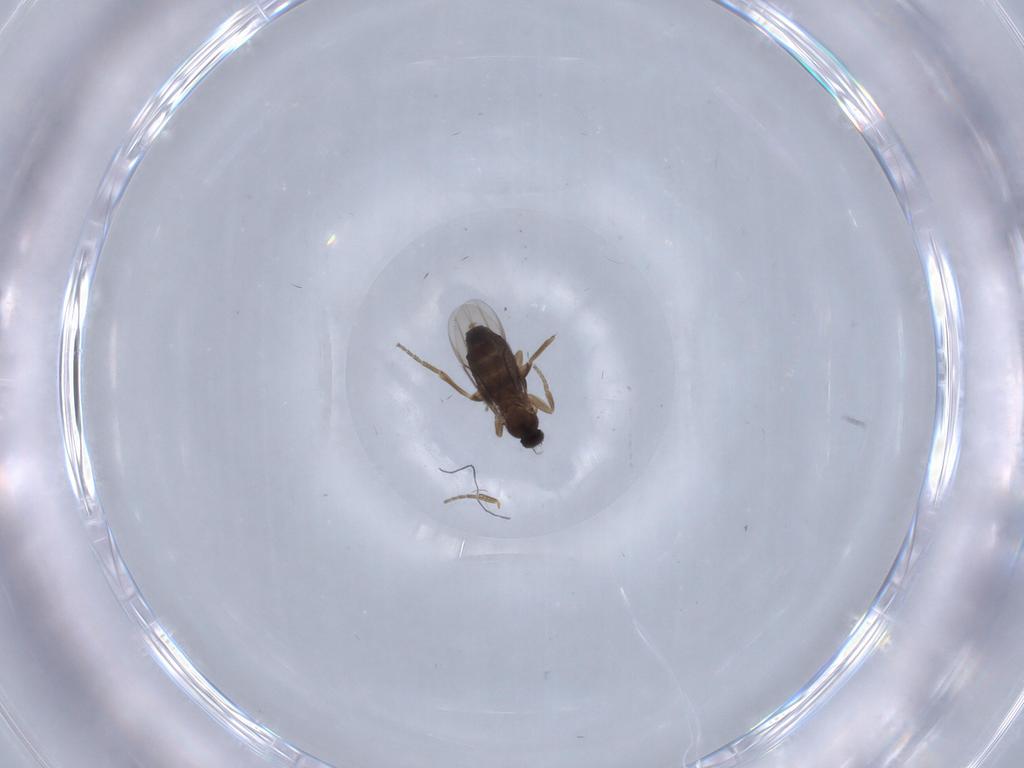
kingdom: Animalia
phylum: Arthropoda
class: Insecta
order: Diptera
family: Phoridae
